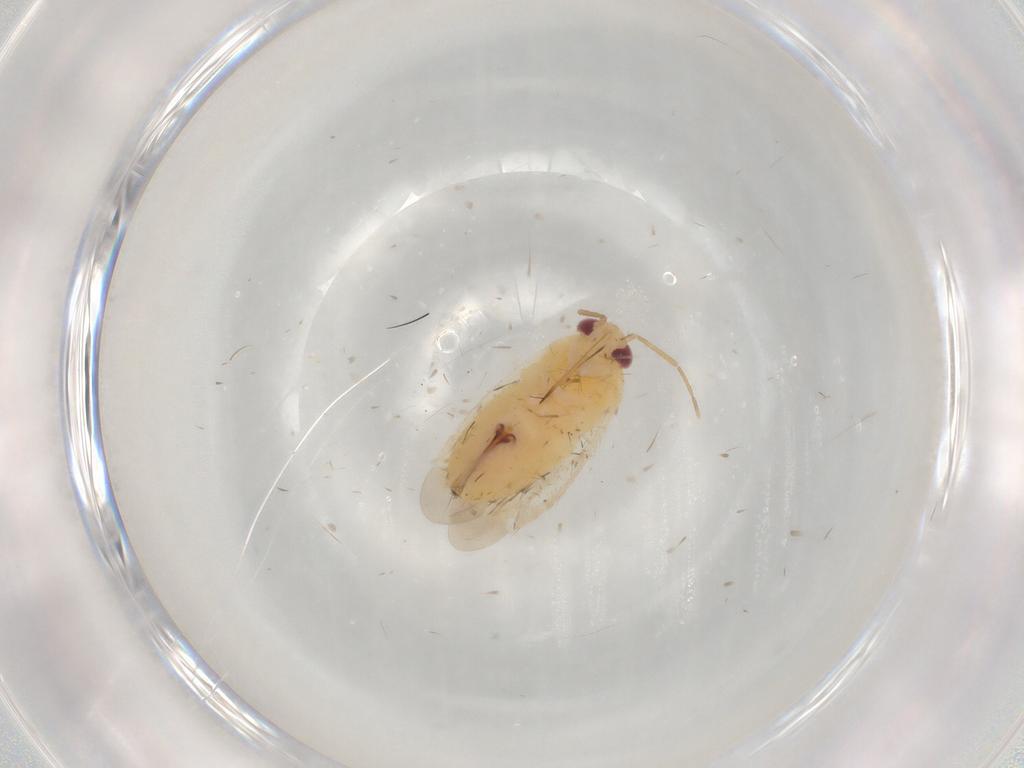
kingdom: Animalia
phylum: Arthropoda
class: Insecta
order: Hemiptera
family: Miridae
